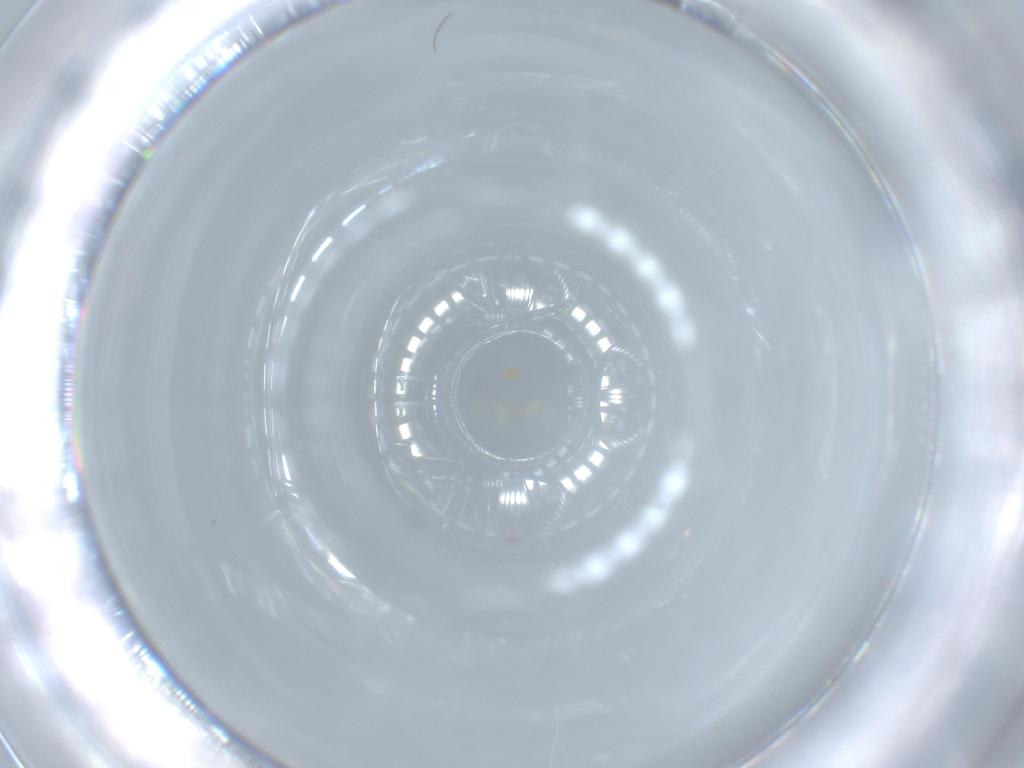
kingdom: Animalia
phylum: Arthropoda
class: Insecta
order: Hymenoptera
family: Mymaridae
